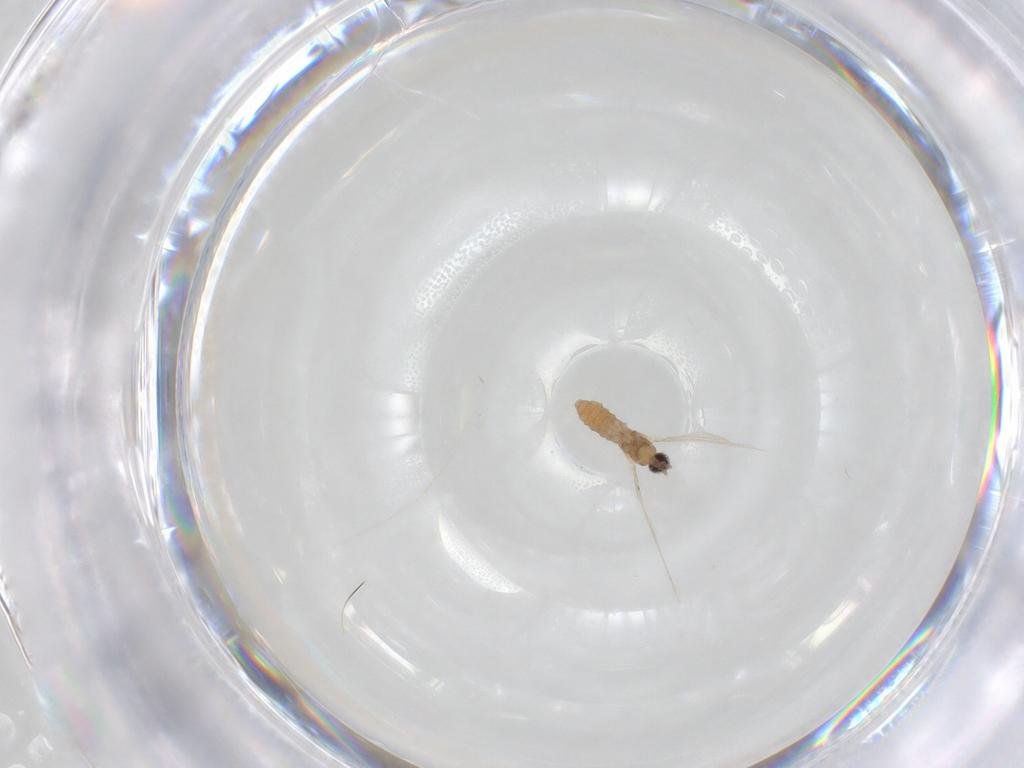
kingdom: Animalia
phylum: Arthropoda
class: Insecta
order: Diptera
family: Cecidomyiidae
